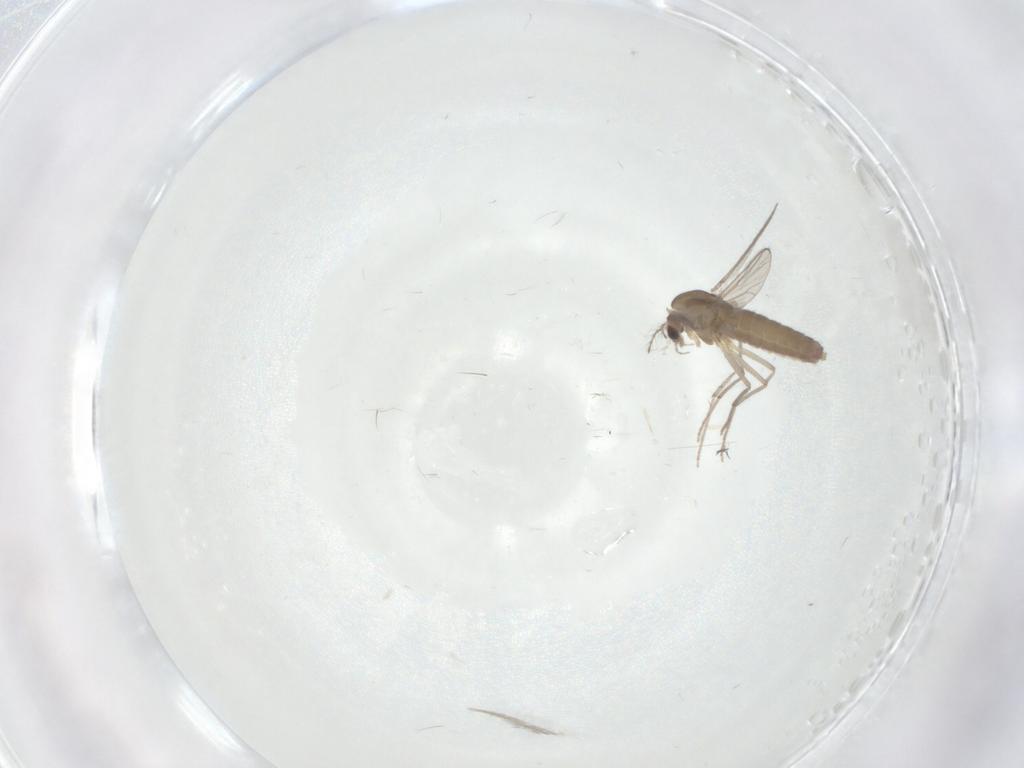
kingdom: Animalia
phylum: Arthropoda
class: Insecta
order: Diptera
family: Chironomidae
